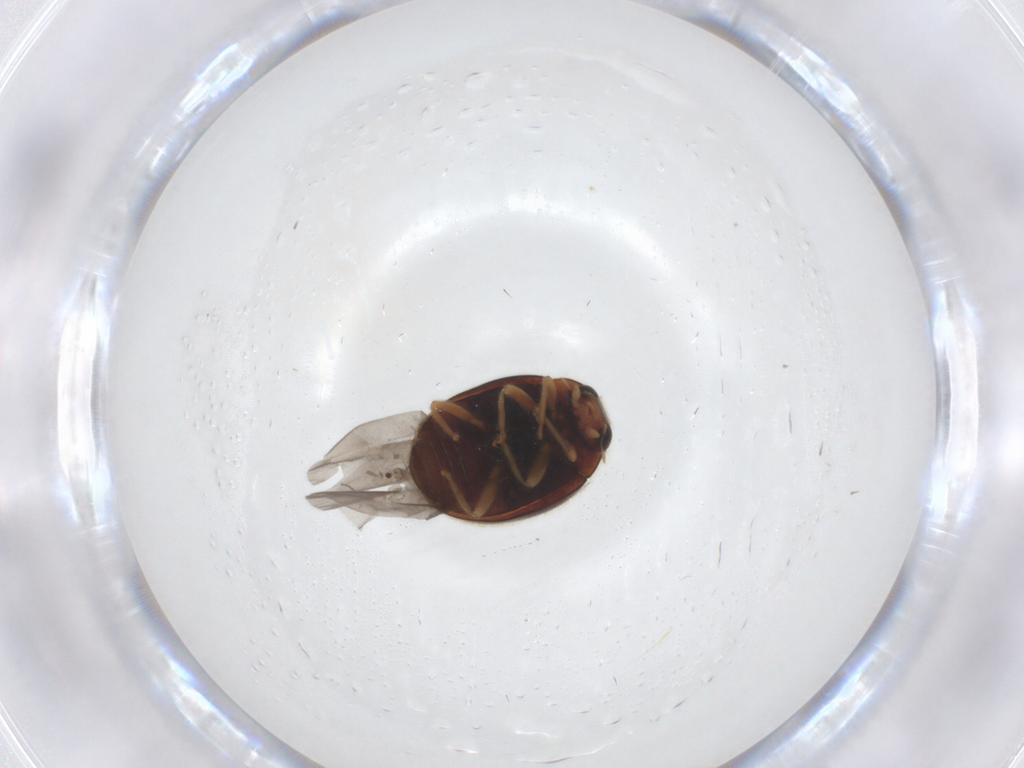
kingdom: Animalia
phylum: Arthropoda
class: Insecta
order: Coleoptera
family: Coccinellidae
